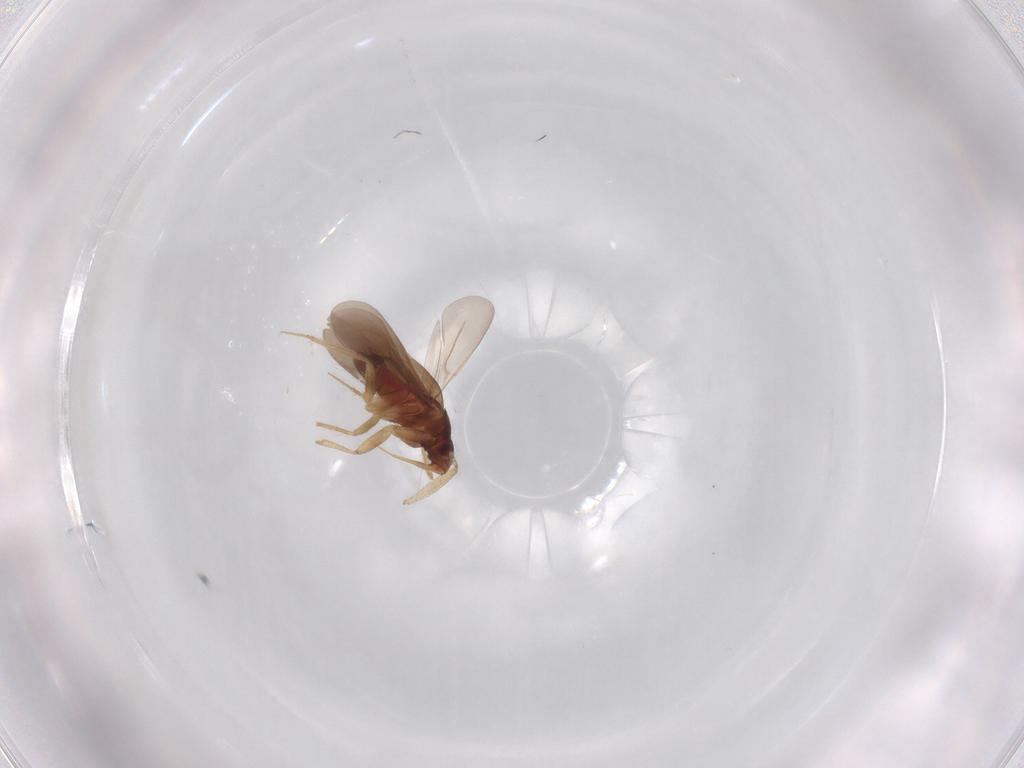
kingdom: Animalia
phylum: Arthropoda
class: Insecta
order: Hemiptera
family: Ceratocombidae
